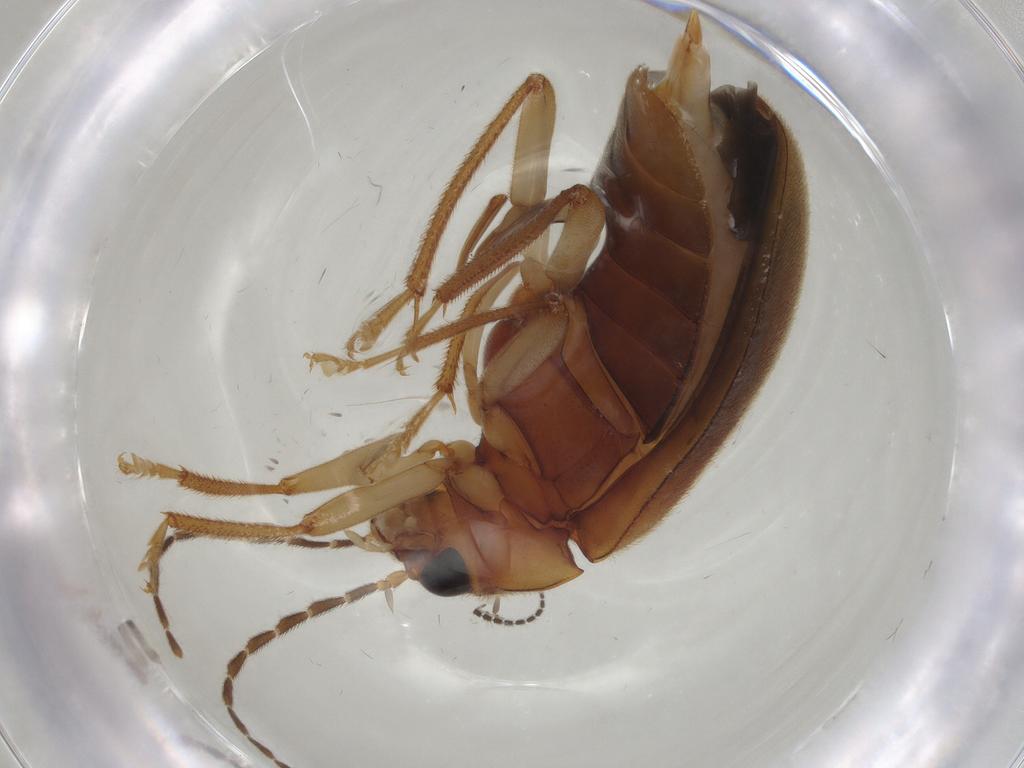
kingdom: Animalia
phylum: Arthropoda
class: Insecta
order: Coleoptera
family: Ptilodactylidae
